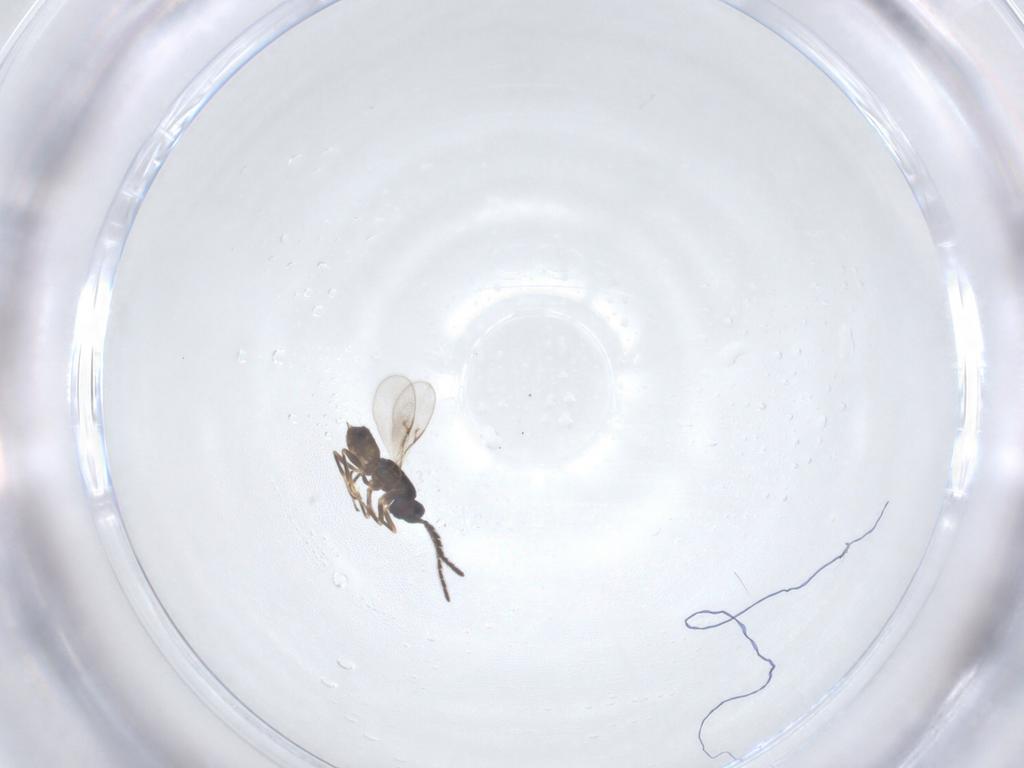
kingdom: Animalia
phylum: Arthropoda
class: Insecta
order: Hymenoptera
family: Encyrtidae
